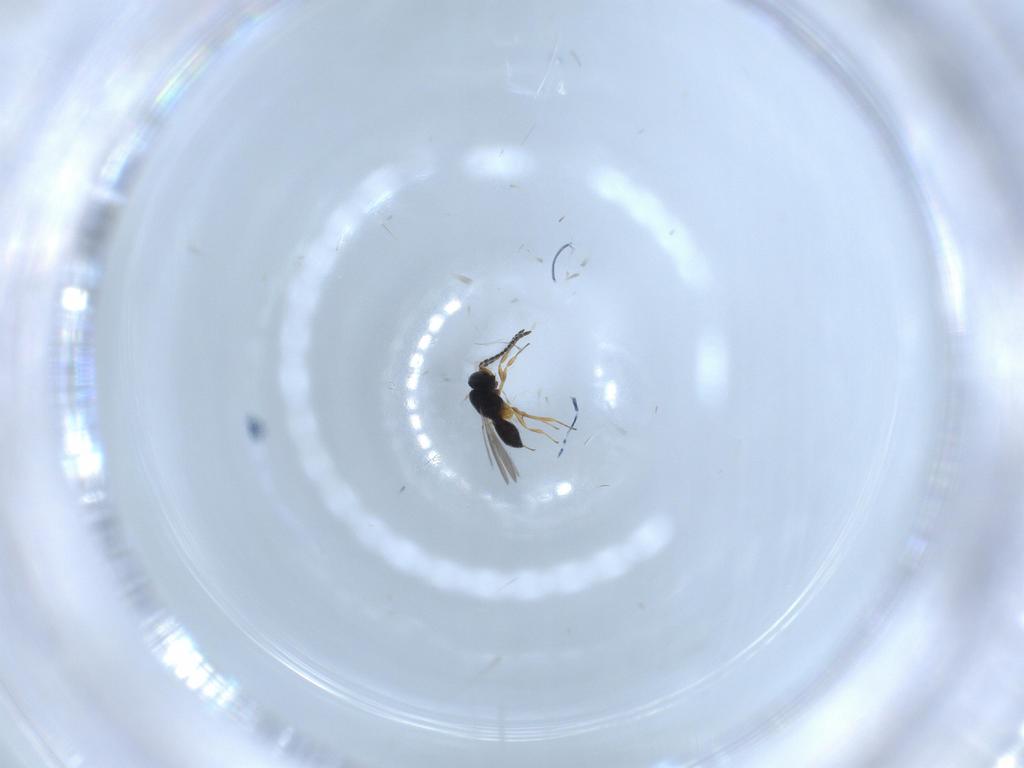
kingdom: Animalia
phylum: Arthropoda
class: Insecta
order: Hymenoptera
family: Scelionidae
